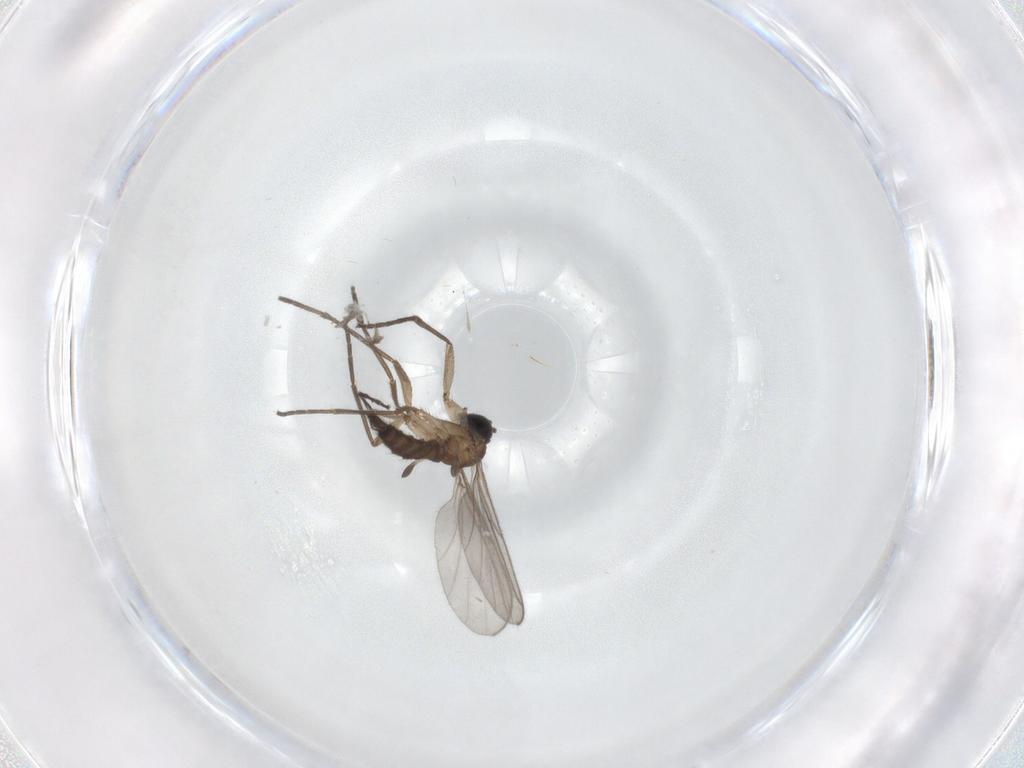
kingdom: Animalia
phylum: Arthropoda
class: Insecta
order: Diptera
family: Sciaridae
